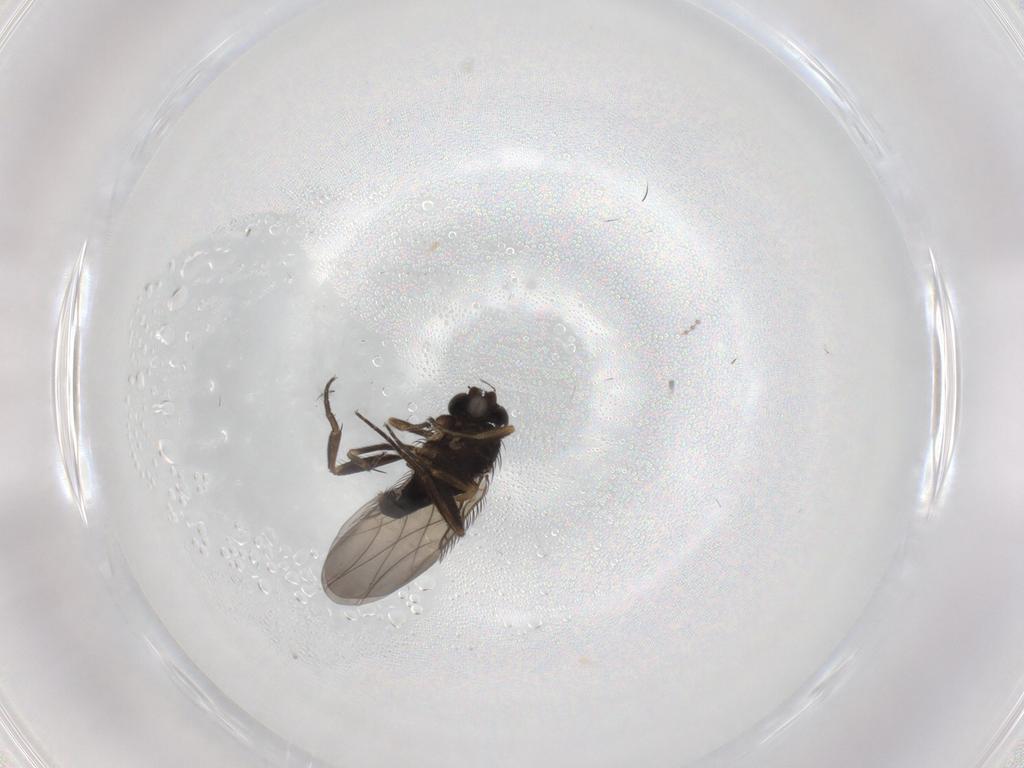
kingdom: Animalia
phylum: Arthropoda
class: Insecta
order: Diptera
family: Phoridae
